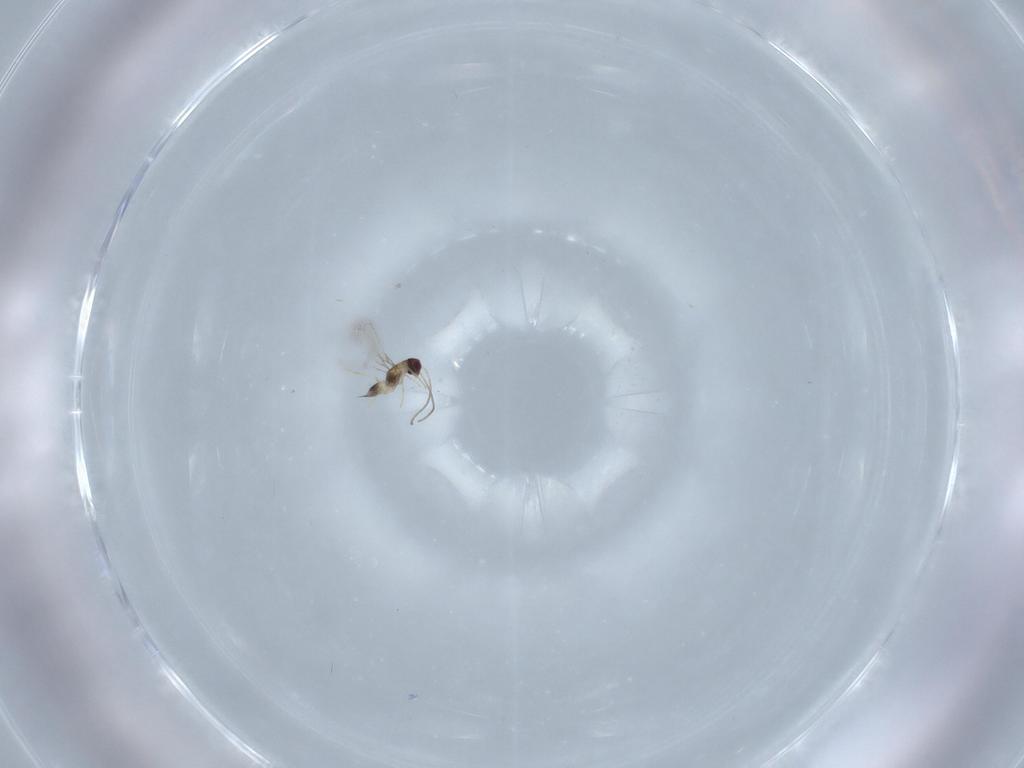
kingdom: Animalia
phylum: Arthropoda
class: Insecta
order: Hymenoptera
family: Mymaridae
